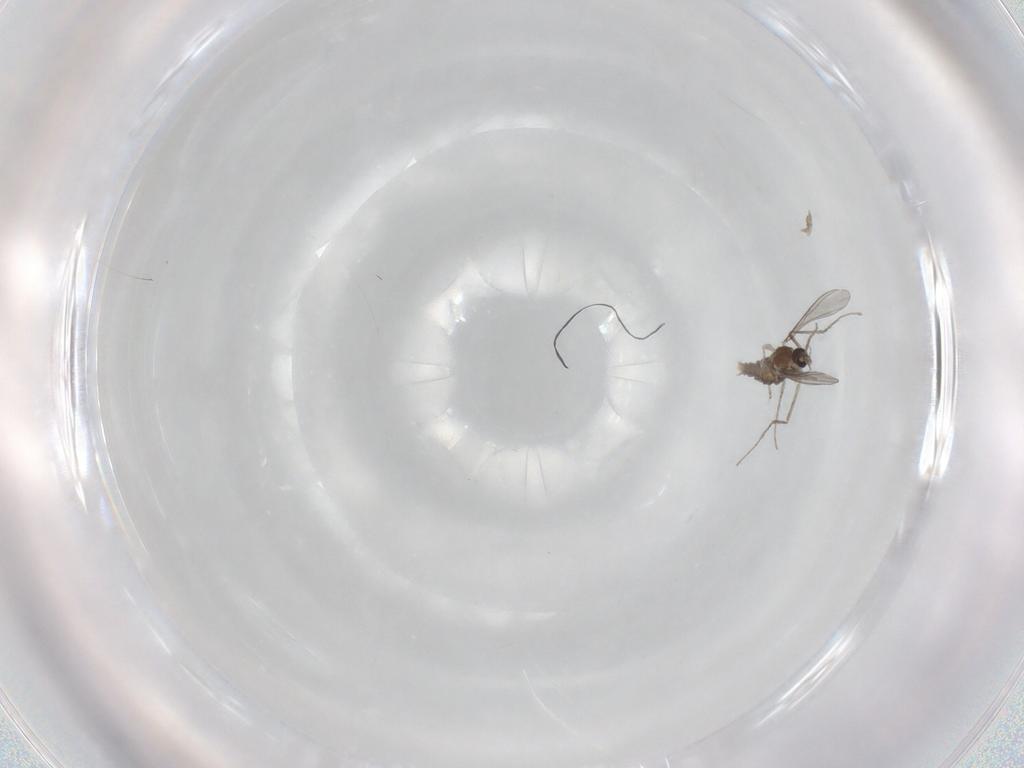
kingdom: Animalia
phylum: Arthropoda
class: Insecta
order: Diptera
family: Cecidomyiidae
